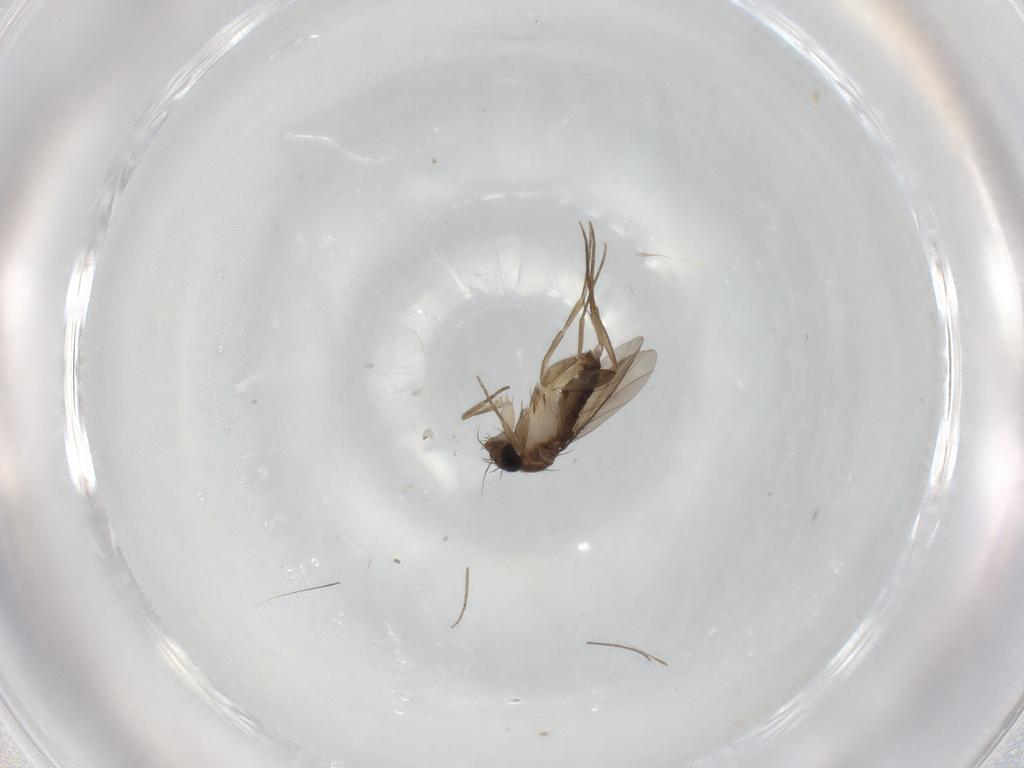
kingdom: Animalia
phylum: Arthropoda
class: Insecta
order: Diptera
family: Phoridae
